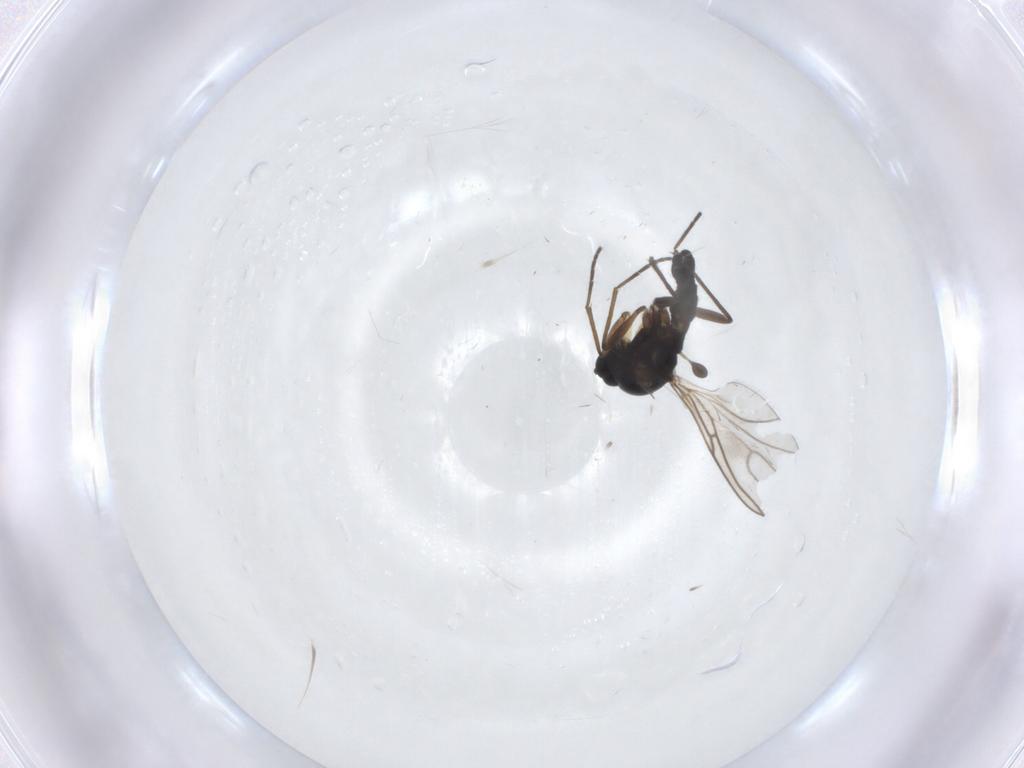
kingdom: Animalia
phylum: Arthropoda
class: Insecta
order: Diptera
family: Sciaridae
